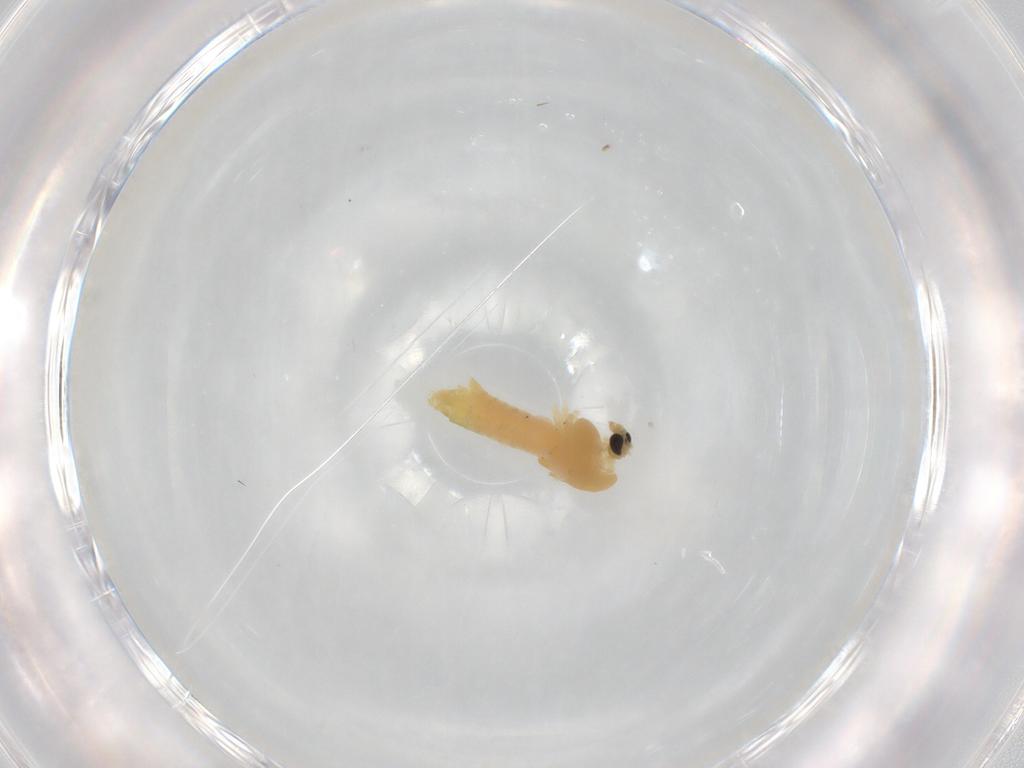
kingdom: Animalia
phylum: Arthropoda
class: Insecta
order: Diptera
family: Chironomidae
